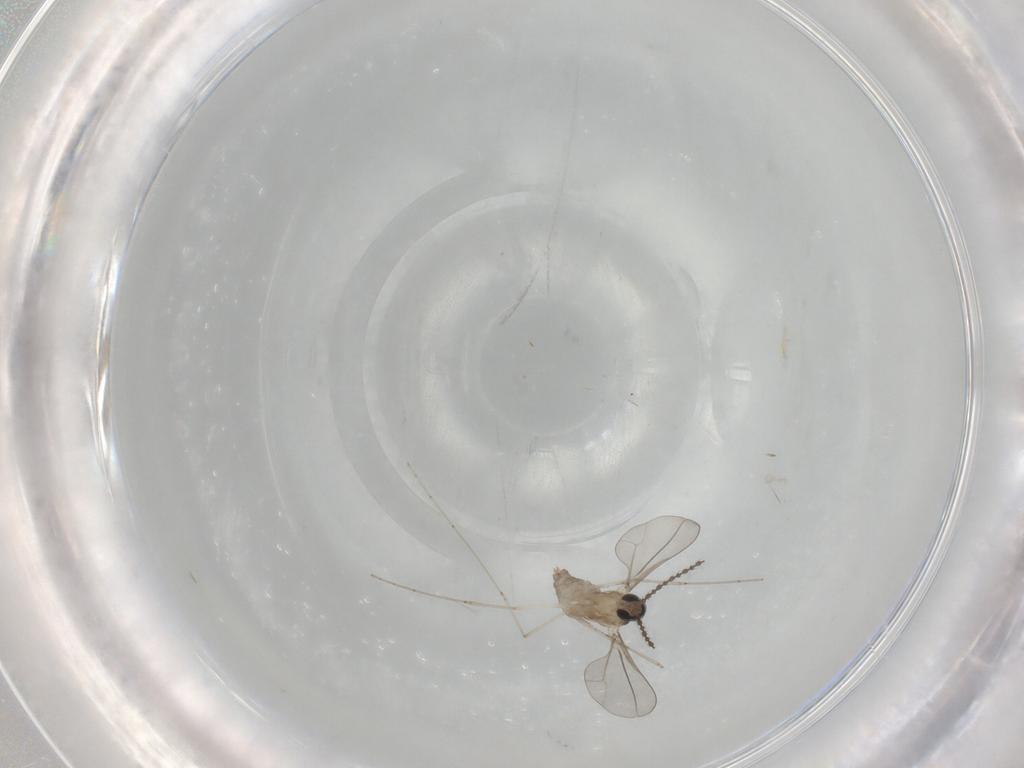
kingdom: Animalia
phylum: Arthropoda
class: Insecta
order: Diptera
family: Cecidomyiidae
